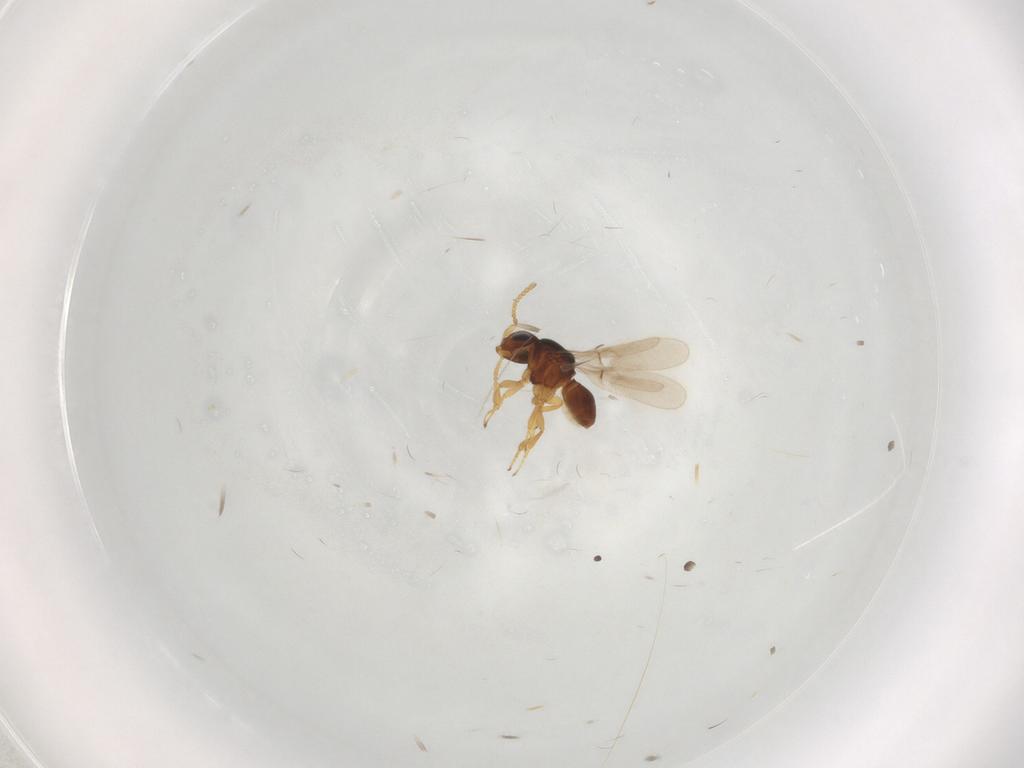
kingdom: Animalia
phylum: Arthropoda
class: Insecta
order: Hymenoptera
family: Scelionidae
